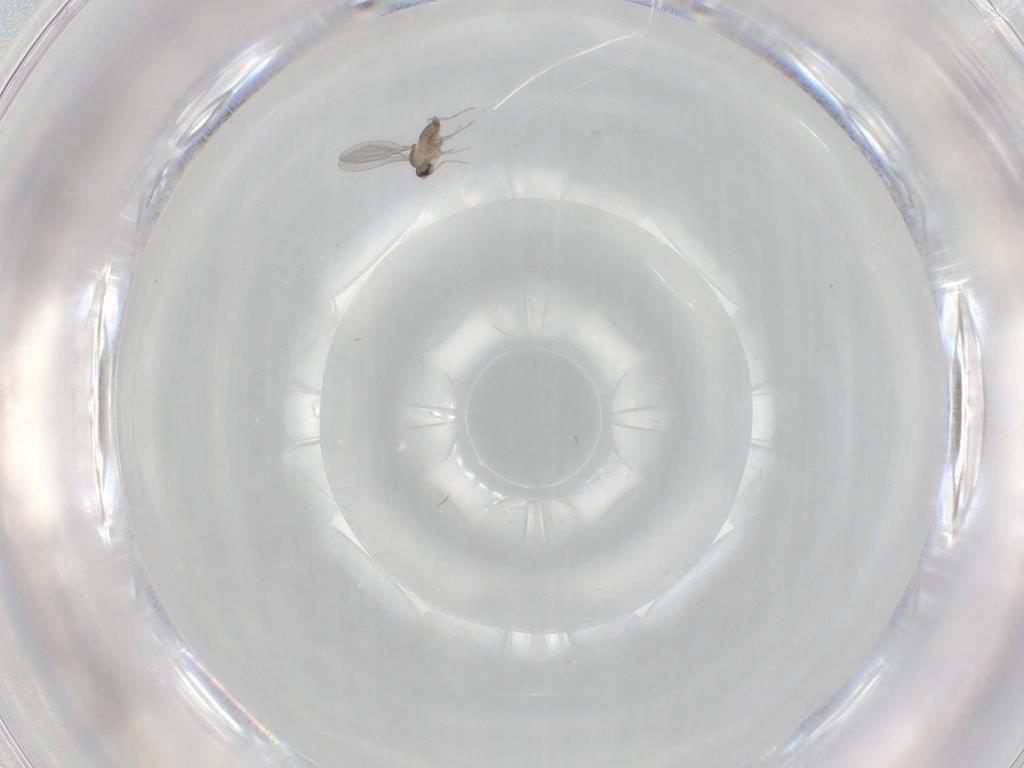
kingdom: Animalia
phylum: Arthropoda
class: Insecta
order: Diptera
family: Cecidomyiidae
